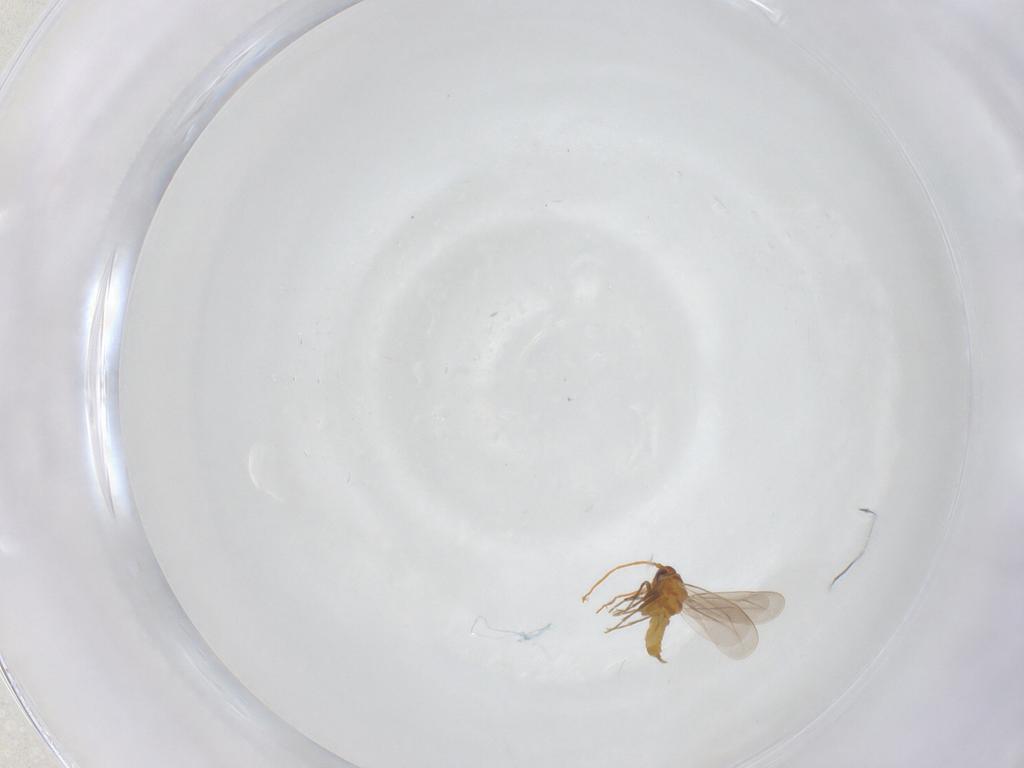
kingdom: Animalia
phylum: Arthropoda
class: Insecta
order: Hemiptera
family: Aleyrodidae
